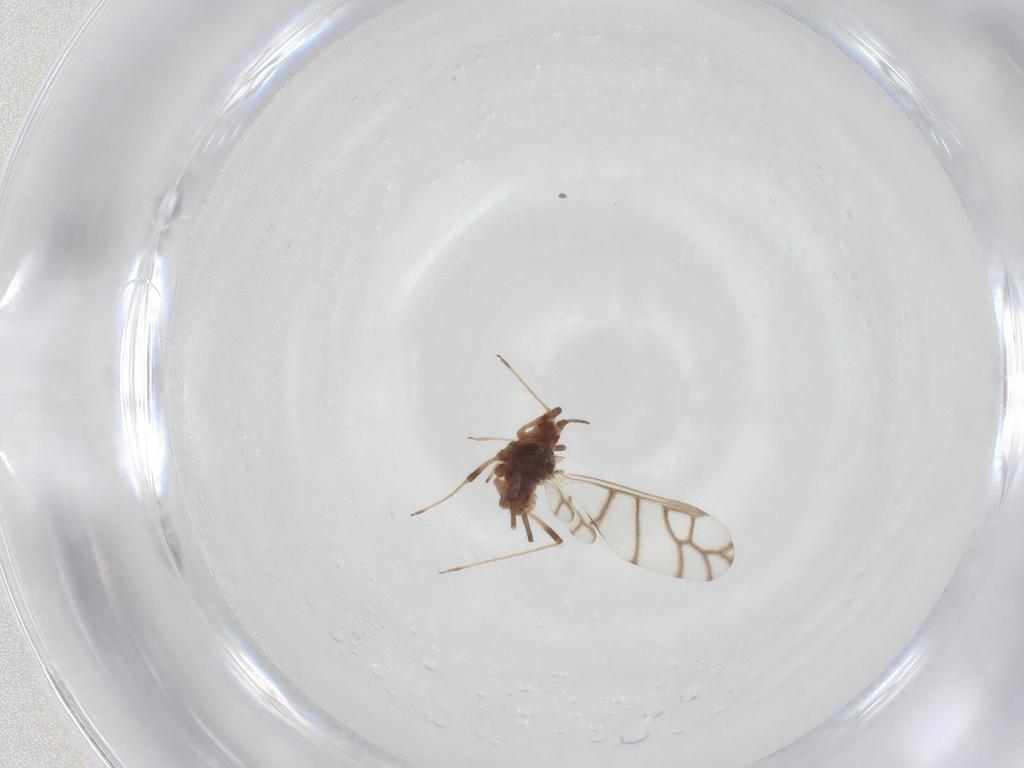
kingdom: Animalia
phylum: Arthropoda
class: Insecta
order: Hemiptera
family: Aphididae
